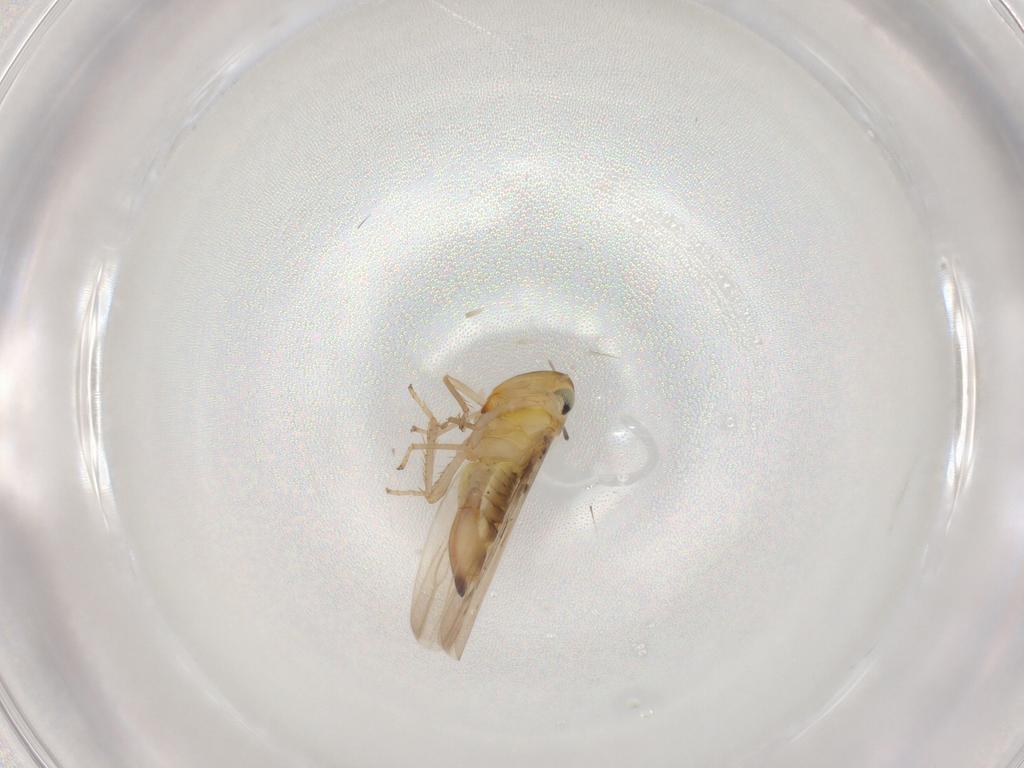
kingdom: Animalia
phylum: Arthropoda
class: Insecta
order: Hemiptera
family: Cicadellidae
